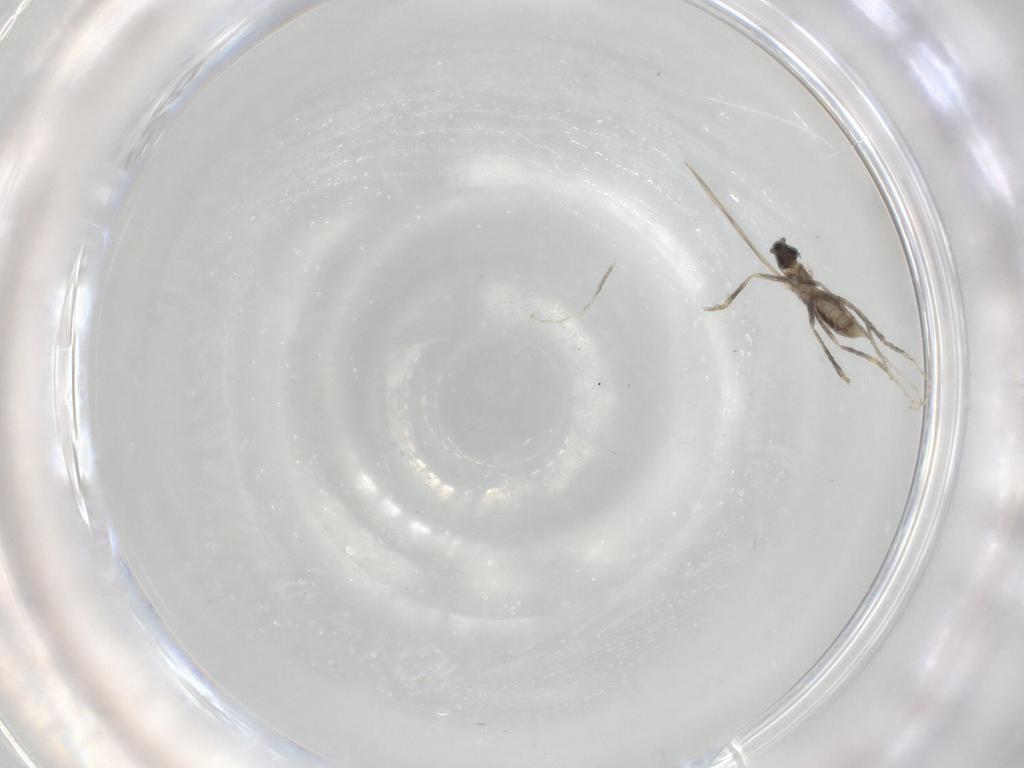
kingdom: Animalia
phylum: Arthropoda
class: Insecta
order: Diptera
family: Cecidomyiidae
